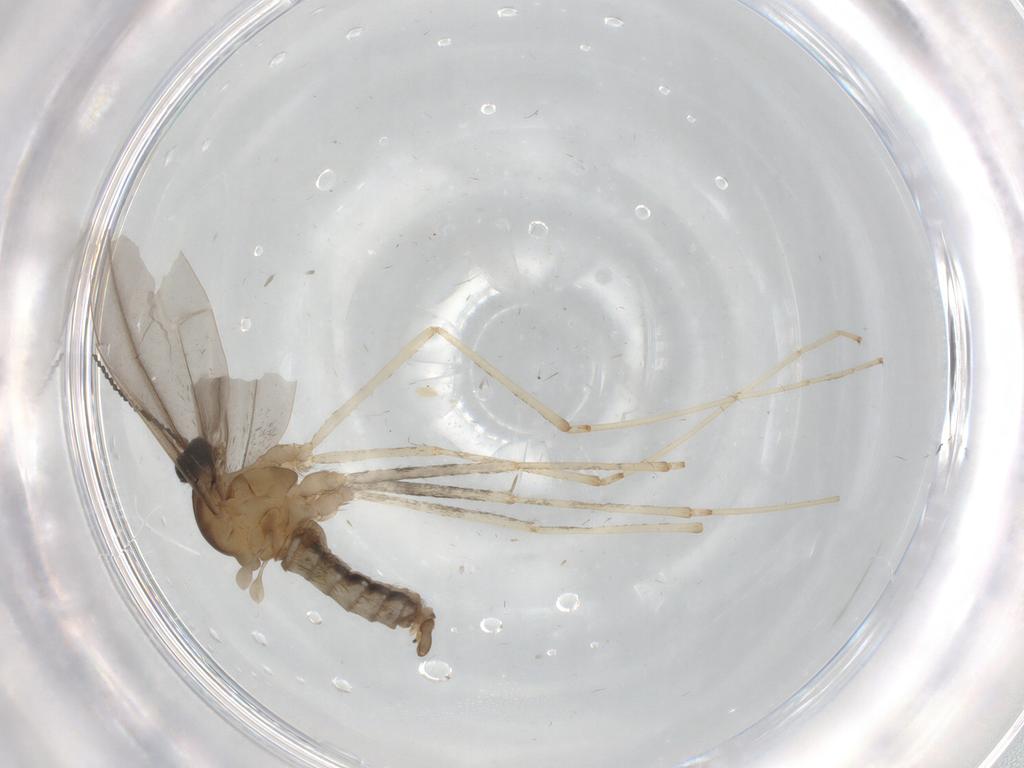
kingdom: Animalia
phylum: Arthropoda
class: Insecta
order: Diptera
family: Cecidomyiidae
